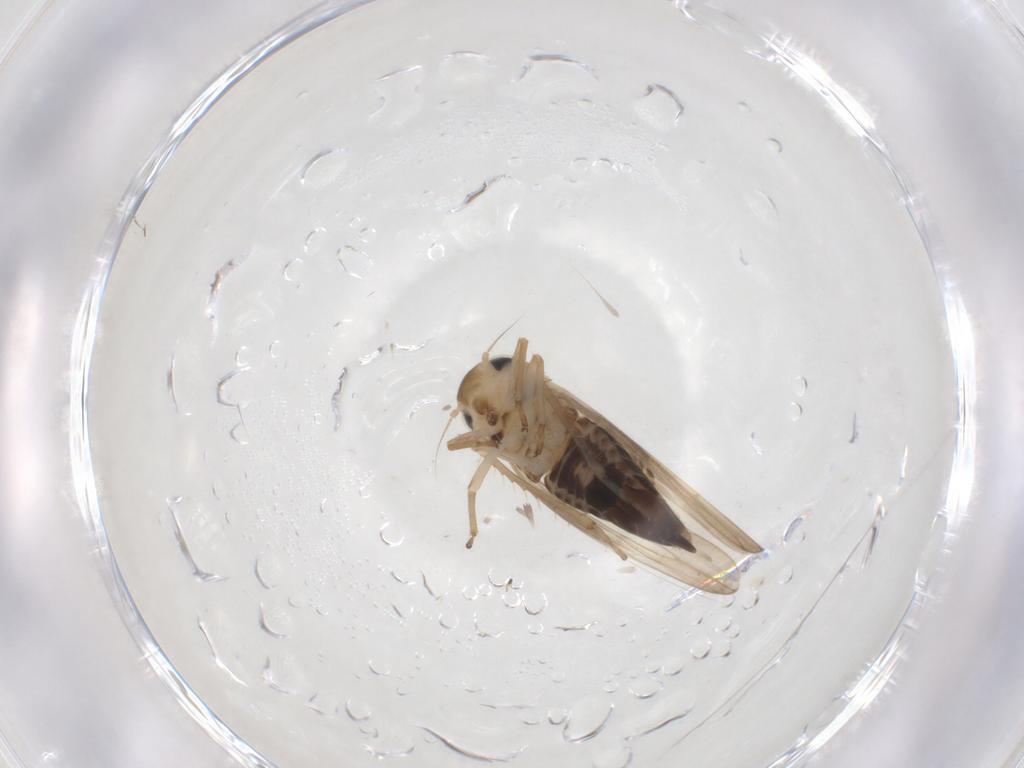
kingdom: Animalia
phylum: Arthropoda
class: Insecta
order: Hemiptera
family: Cicadellidae
